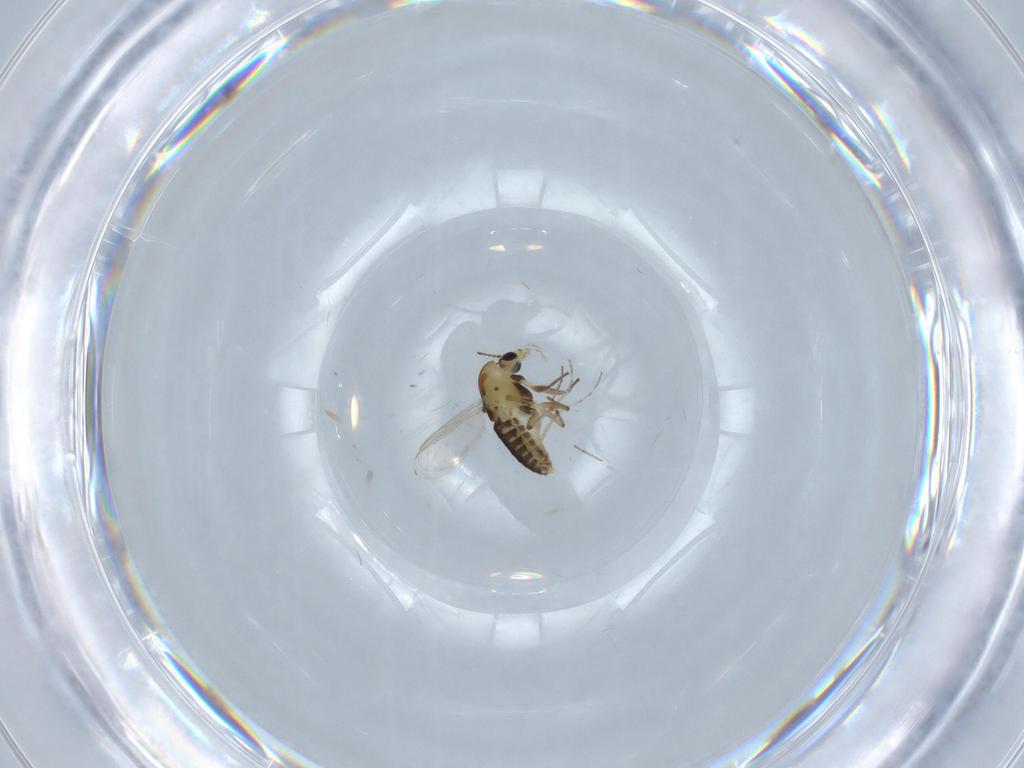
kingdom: Animalia
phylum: Arthropoda
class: Insecta
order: Diptera
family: Chironomidae
